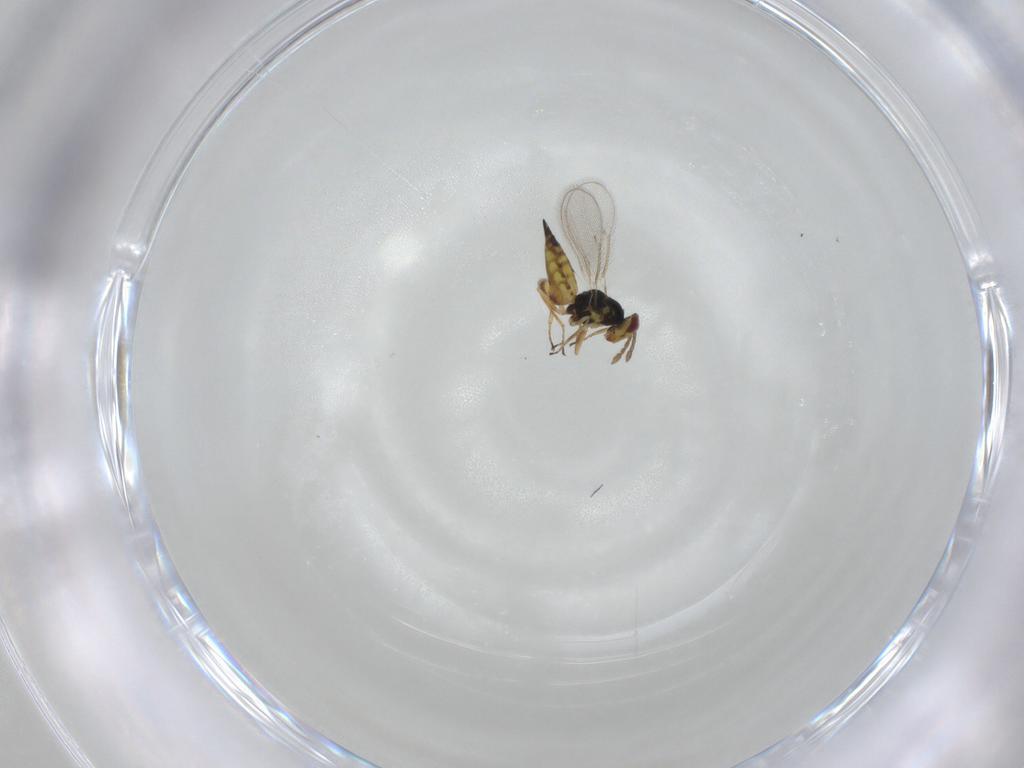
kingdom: Animalia
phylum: Arthropoda
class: Insecta
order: Hymenoptera
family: Eulophidae
